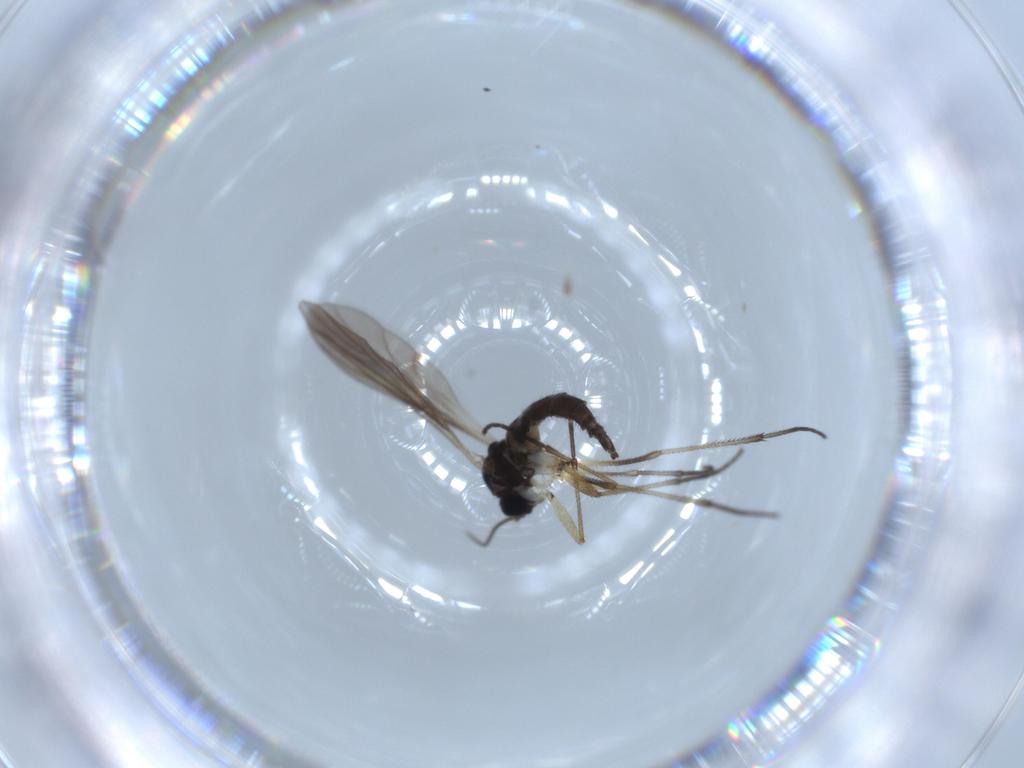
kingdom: Animalia
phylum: Arthropoda
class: Insecta
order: Diptera
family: Sciaridae
